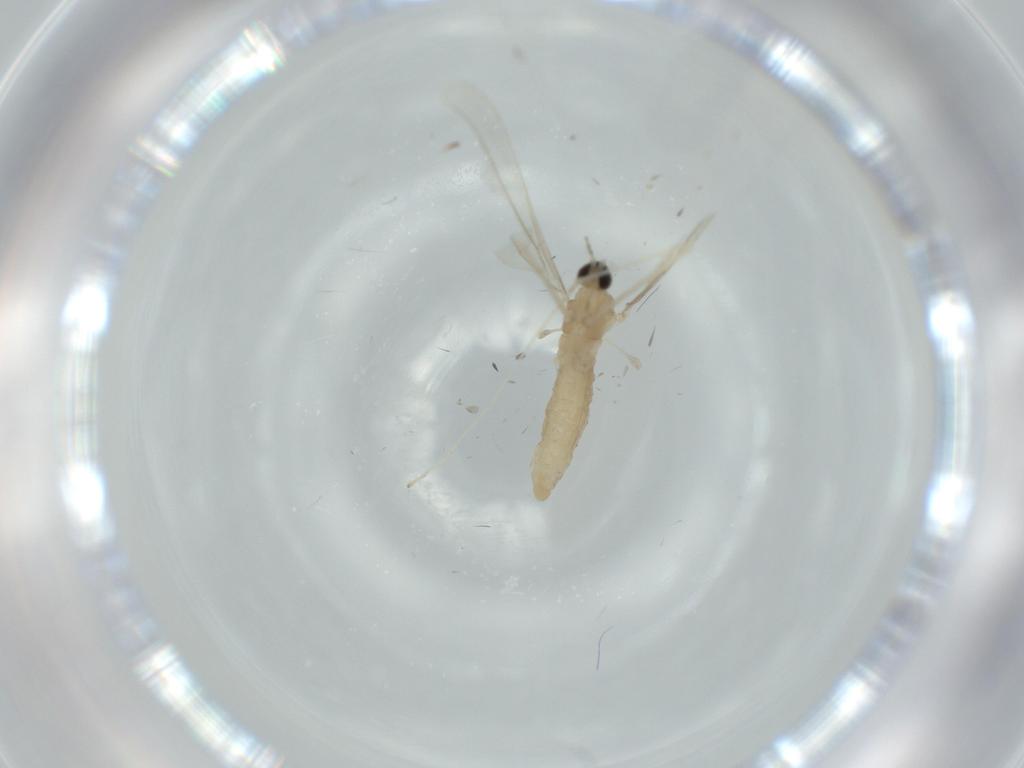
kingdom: Animalia
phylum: Arthropoda
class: Insecta
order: Diptera
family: Cecidomyiidae
